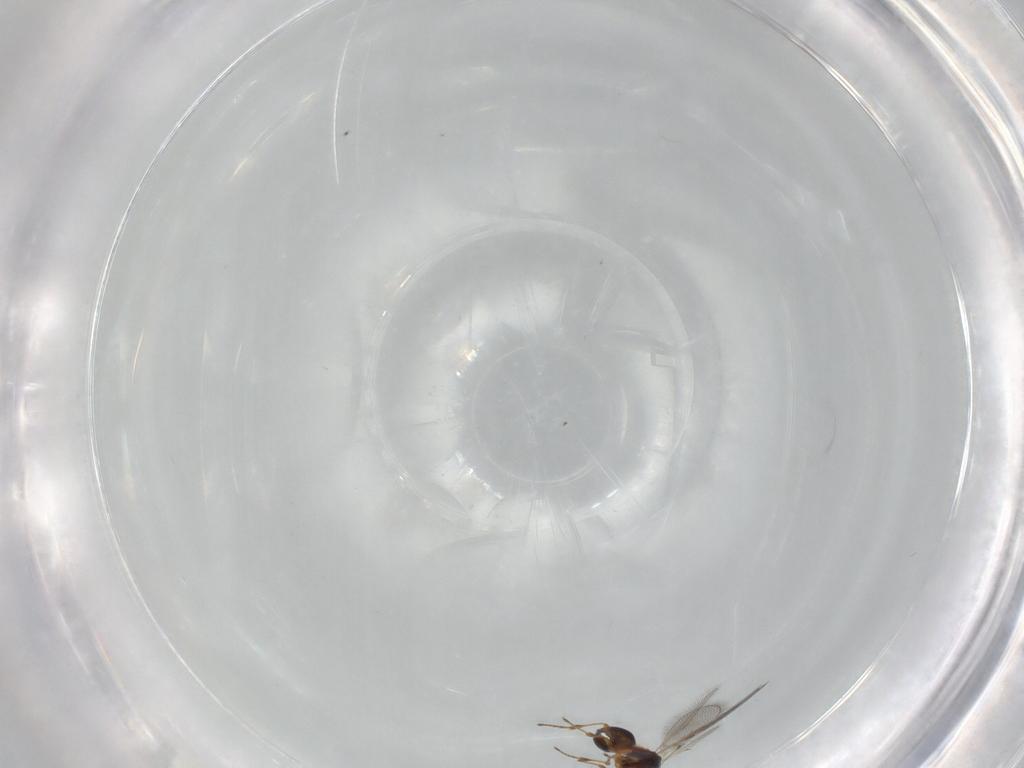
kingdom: Animalia
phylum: Arthropoda
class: Insecta
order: Hymenoptera
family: Diapriidae
